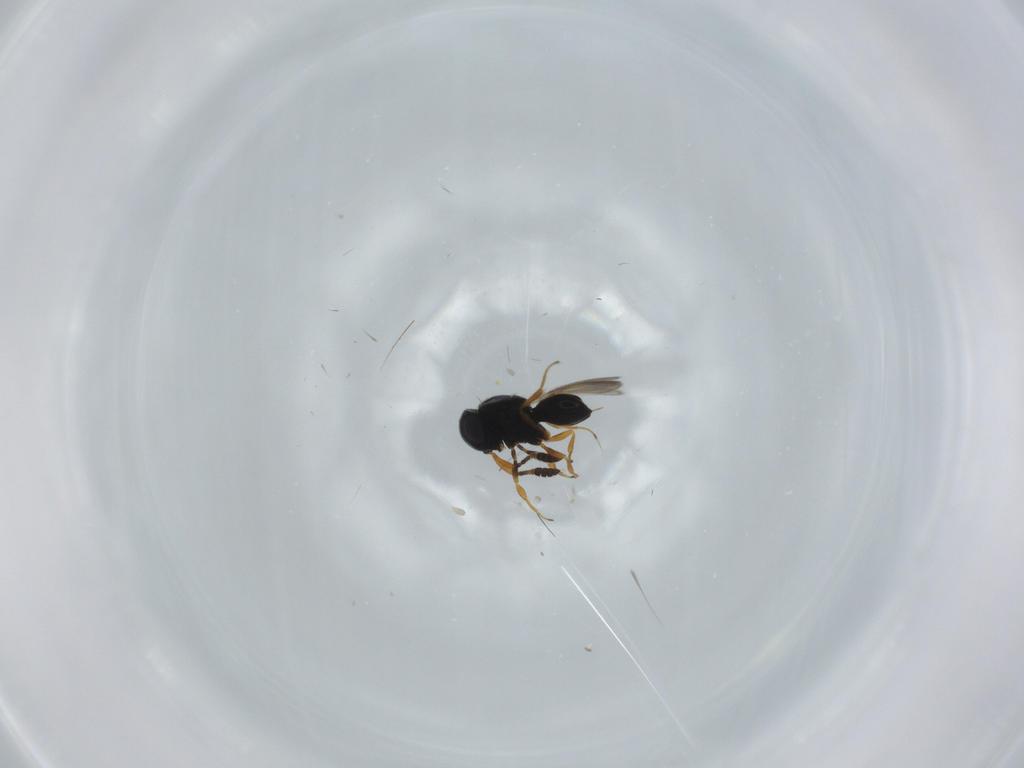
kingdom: Animalia
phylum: Arthropoda
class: Insecta
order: Hymenoptera
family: Scelionidae
